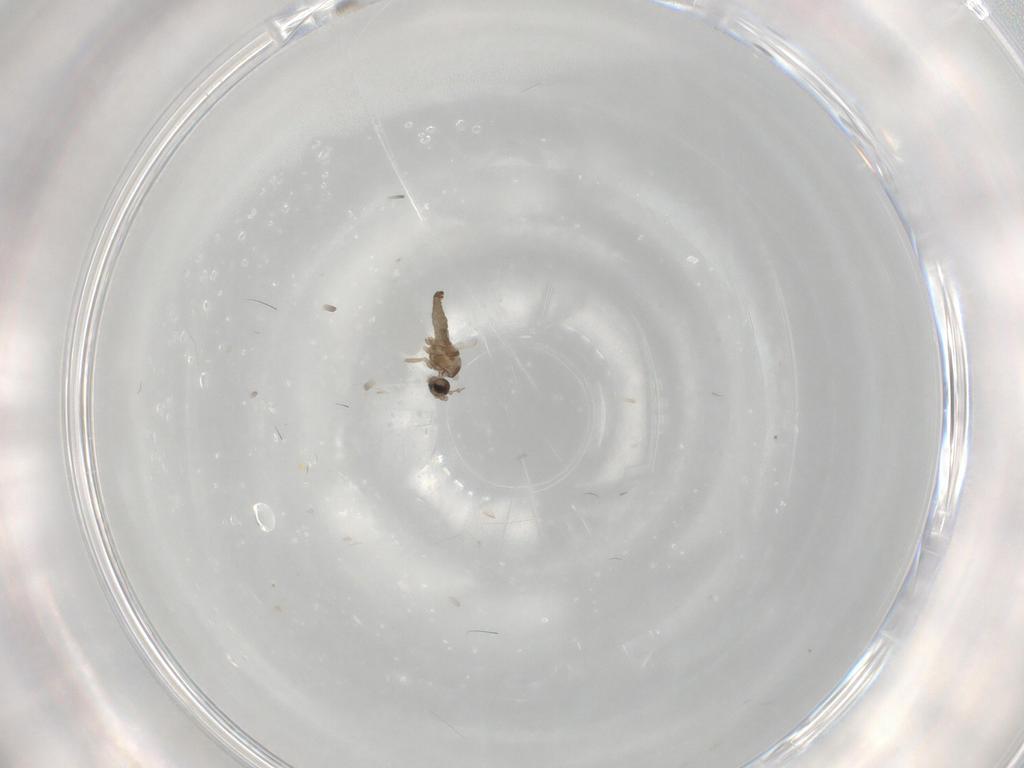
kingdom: Animalia
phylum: Arthropoda
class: Insecta
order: Diptera
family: Cecidomyiidae
